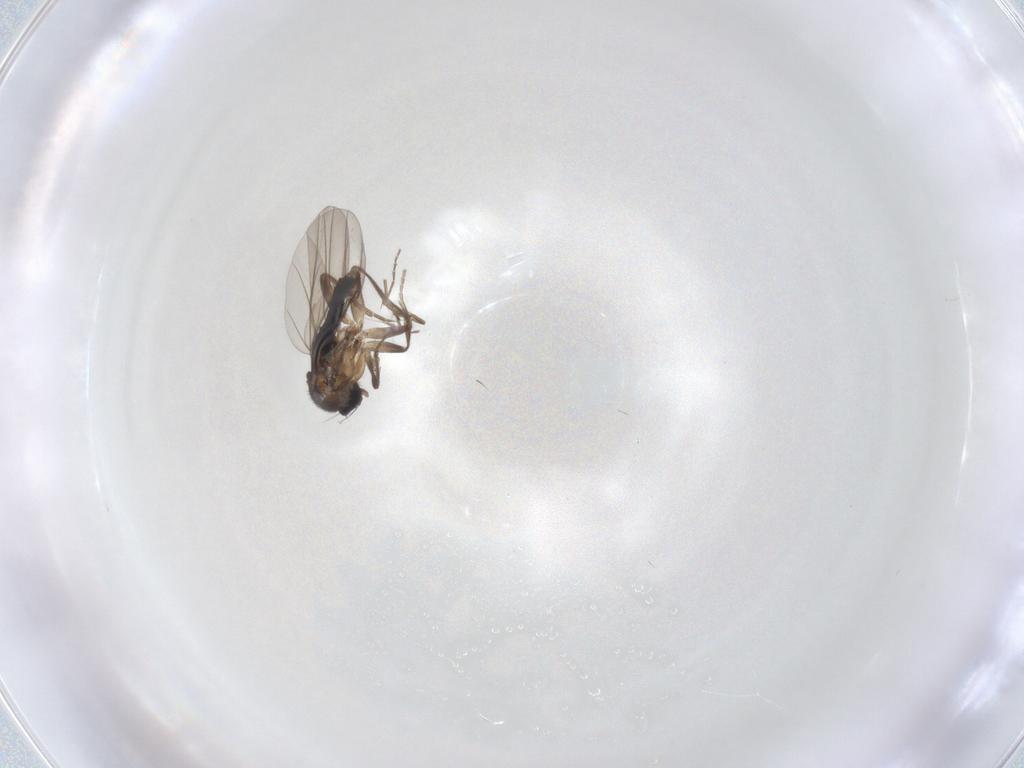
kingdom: Animalia
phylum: Arthropoda
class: Insecta
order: Diptera
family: Phoridae
